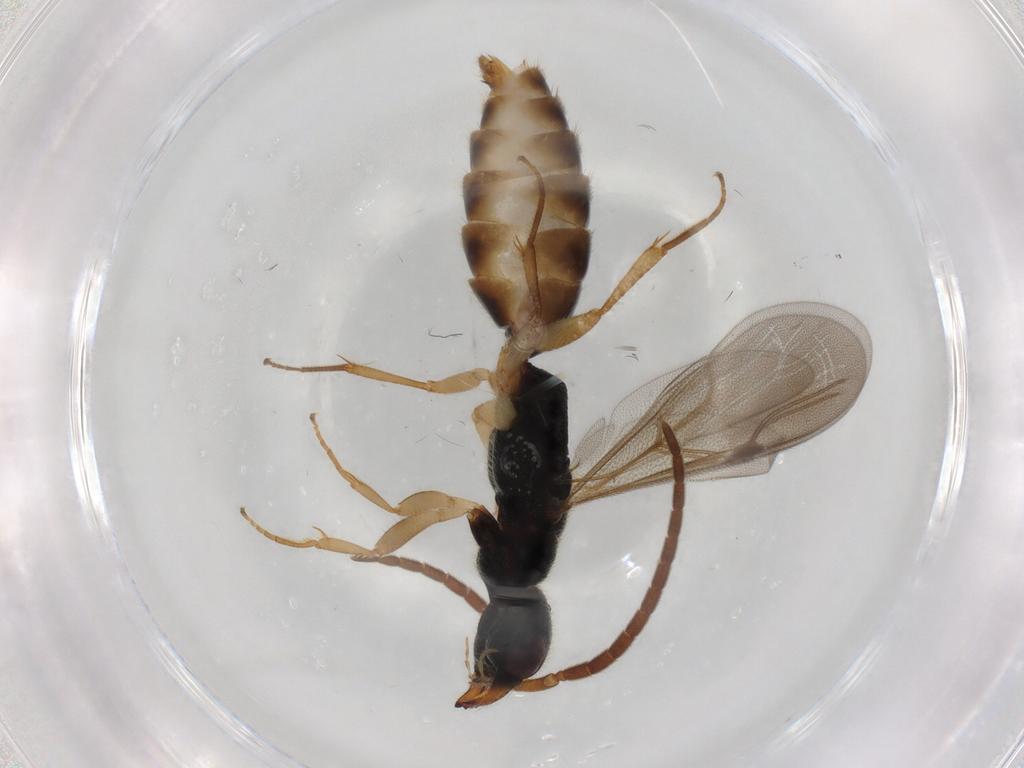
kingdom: Animalia
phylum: Arthropoda
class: Insecta
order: Hymenoptera
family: Bethylidae
